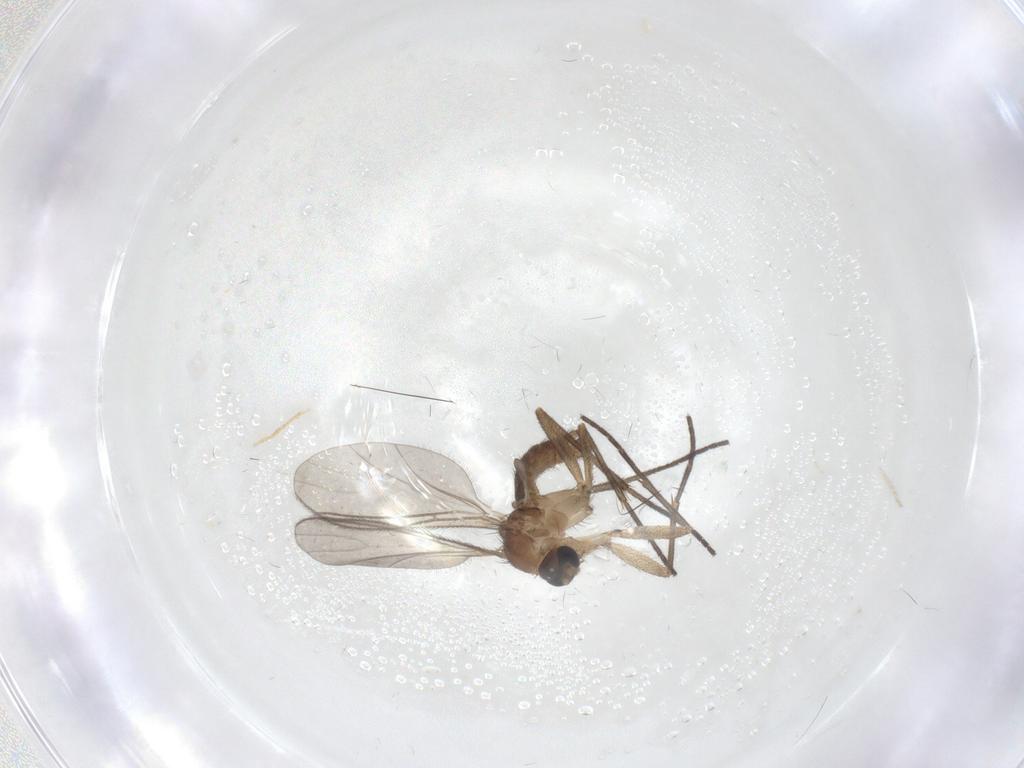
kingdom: Animalia
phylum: Arthropoda
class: Insecta
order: Diptera
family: Sciaridae
